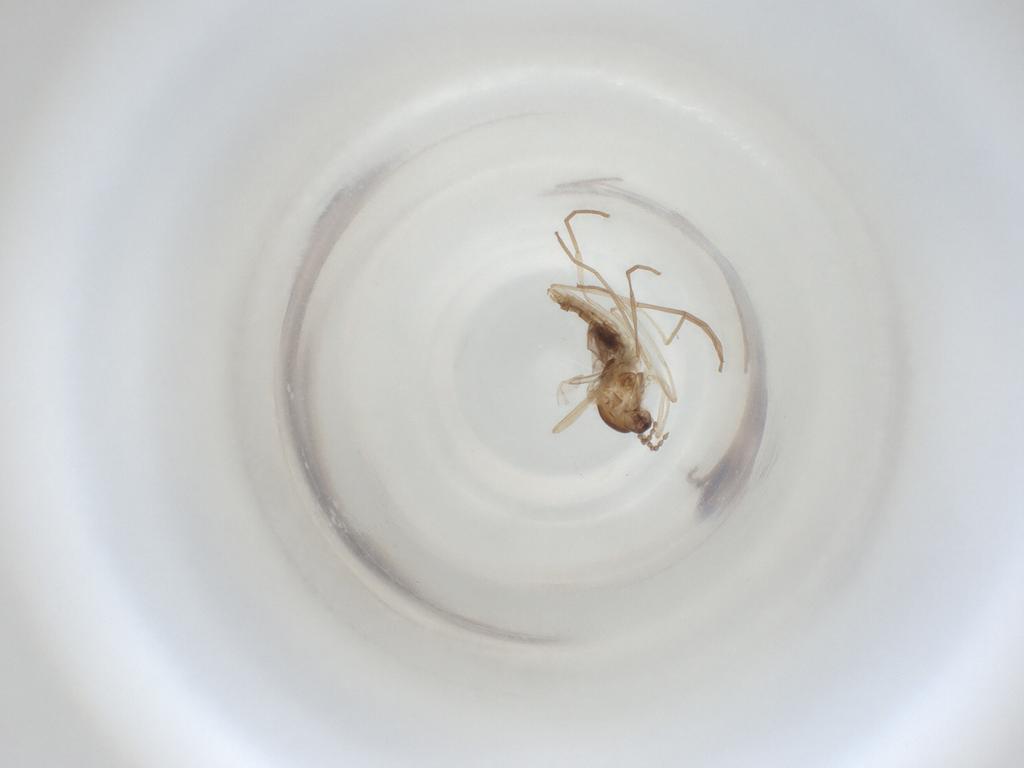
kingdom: Animalia
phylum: Arthropoda
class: Insecta
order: Diptera
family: Cecidomyiidae
